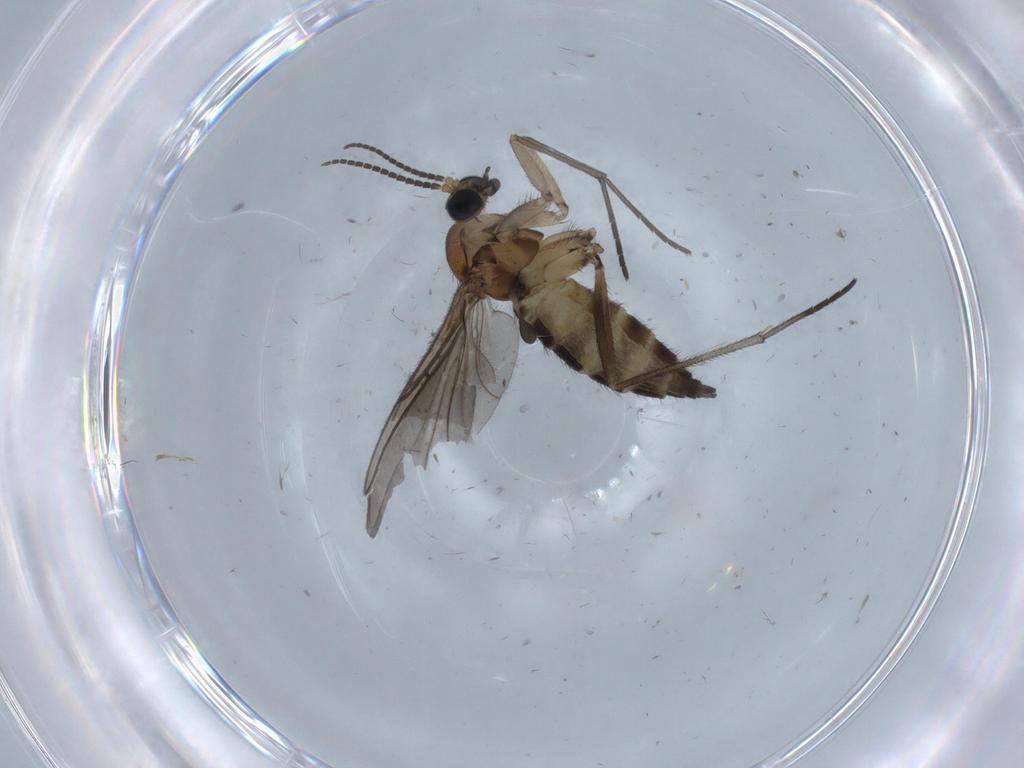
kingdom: Animalia
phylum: Arthropoda
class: Insecta
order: Diptera
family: Sciaridae
